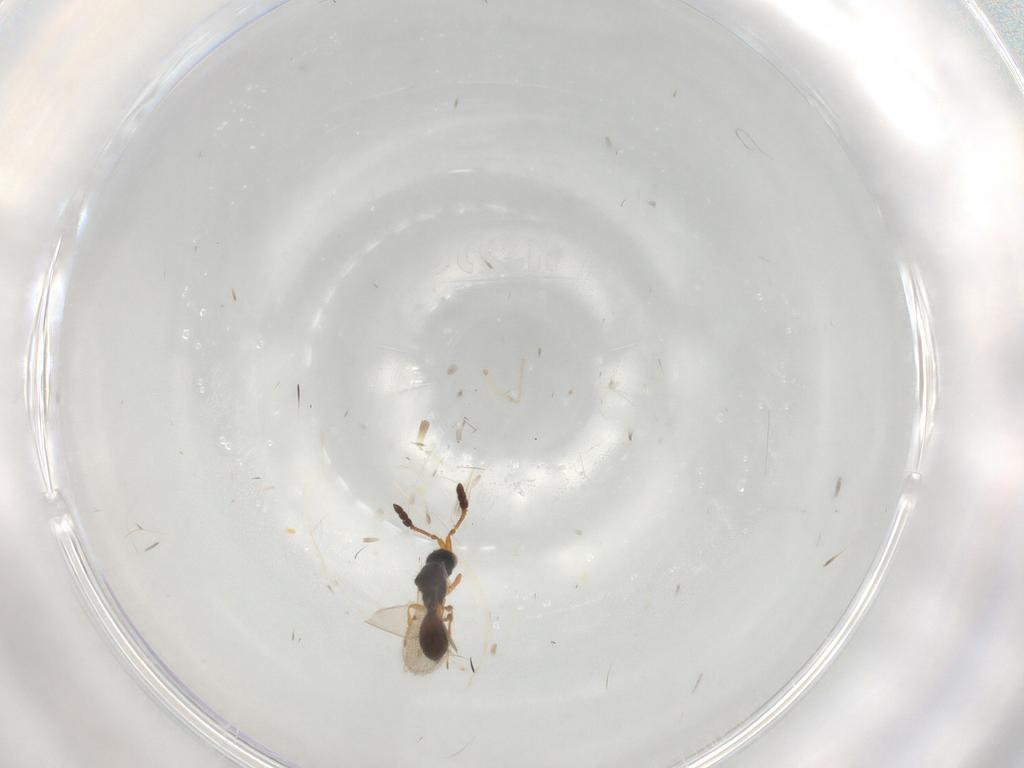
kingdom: Animalia
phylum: Arthropoda
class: Insecta
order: Hymenoptera
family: Diapriidae
